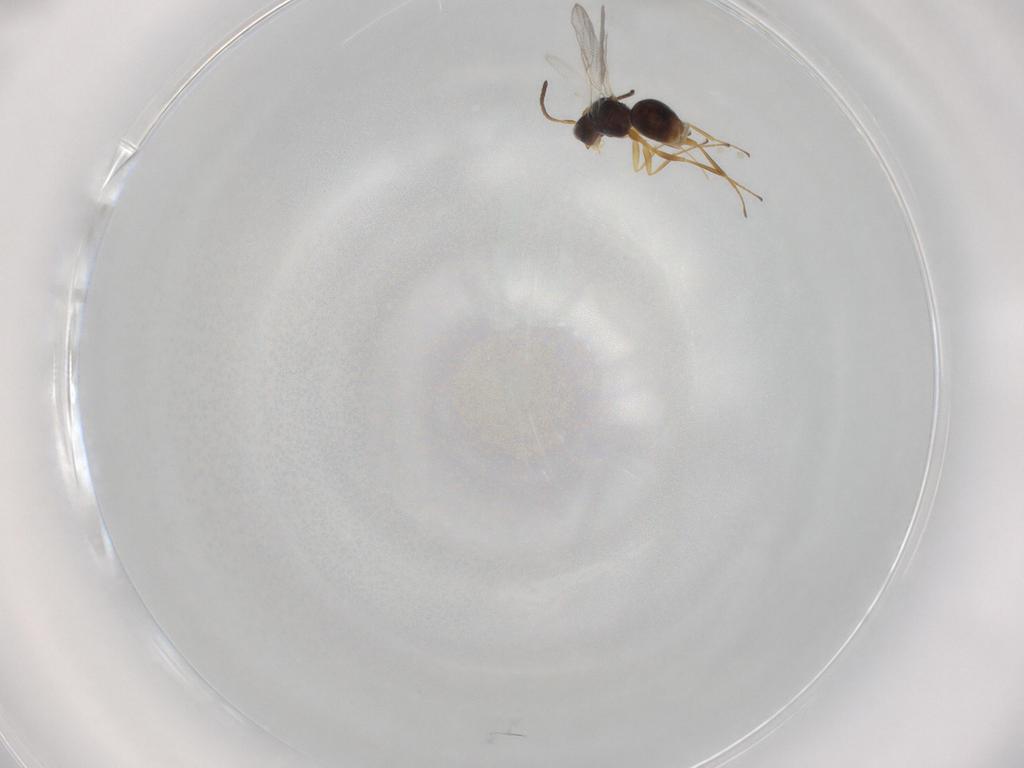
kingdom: Animalia
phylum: Arthropoda
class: Insecta
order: Hymenoptera
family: Figitidae
